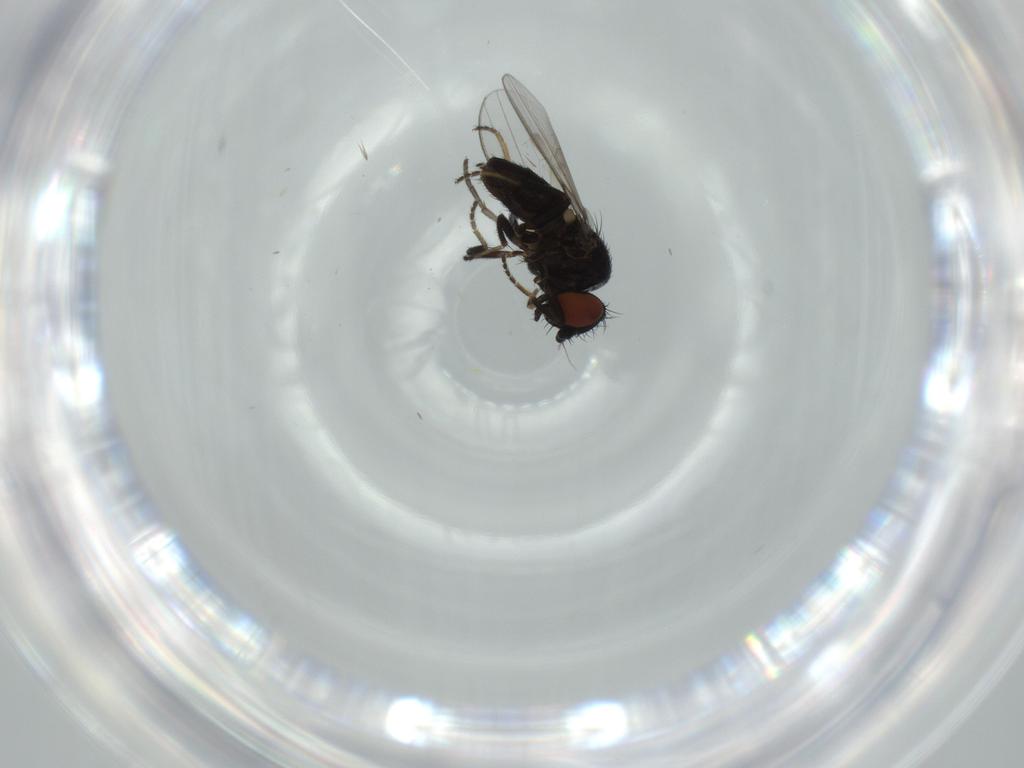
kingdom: Animalia
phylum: Arthropoda
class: Insecta
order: Diptera
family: Milichiidae
